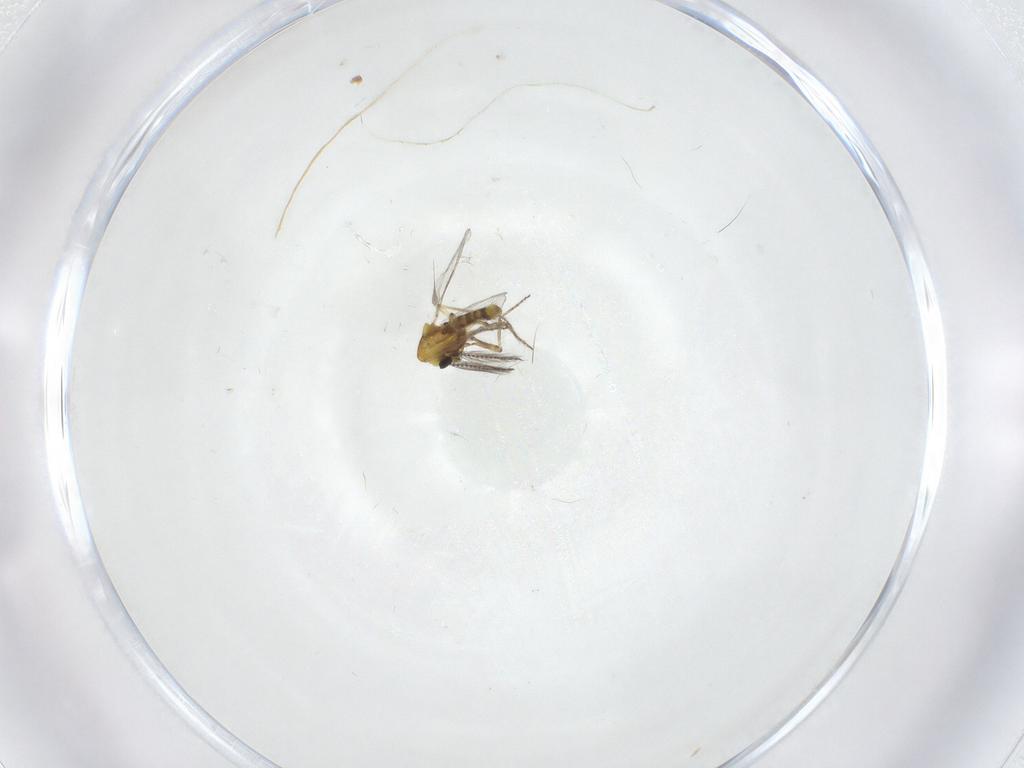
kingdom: Animalia
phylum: Arthropoda
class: Insecta
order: Diptera
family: Ceratopogonidae
